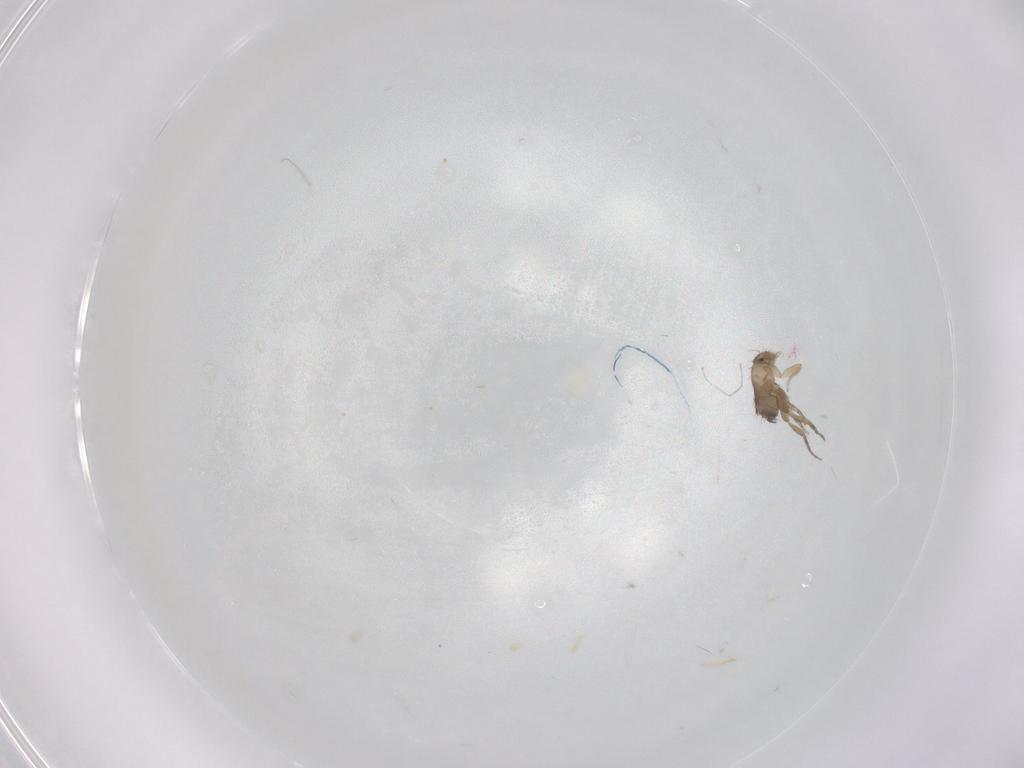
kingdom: Animalia
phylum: Arthropoda
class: Insecta
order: Diptera
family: Phoridae
